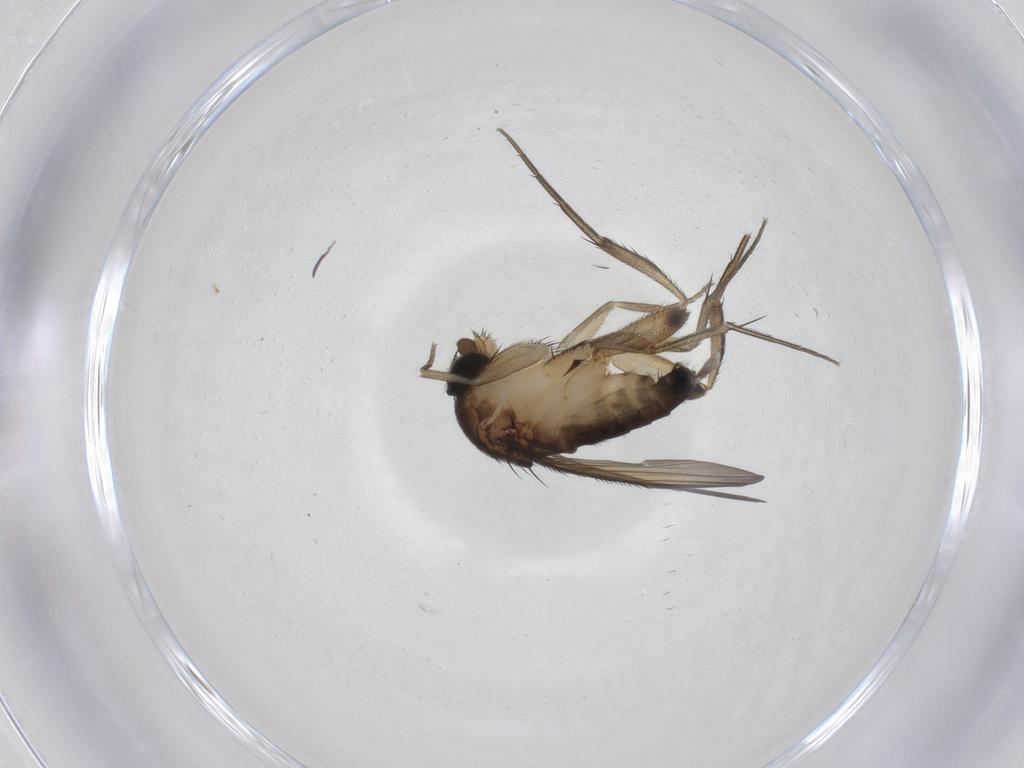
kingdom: Animalia
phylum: Arthropoda
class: Insecta
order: Diptera
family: Phoridae
